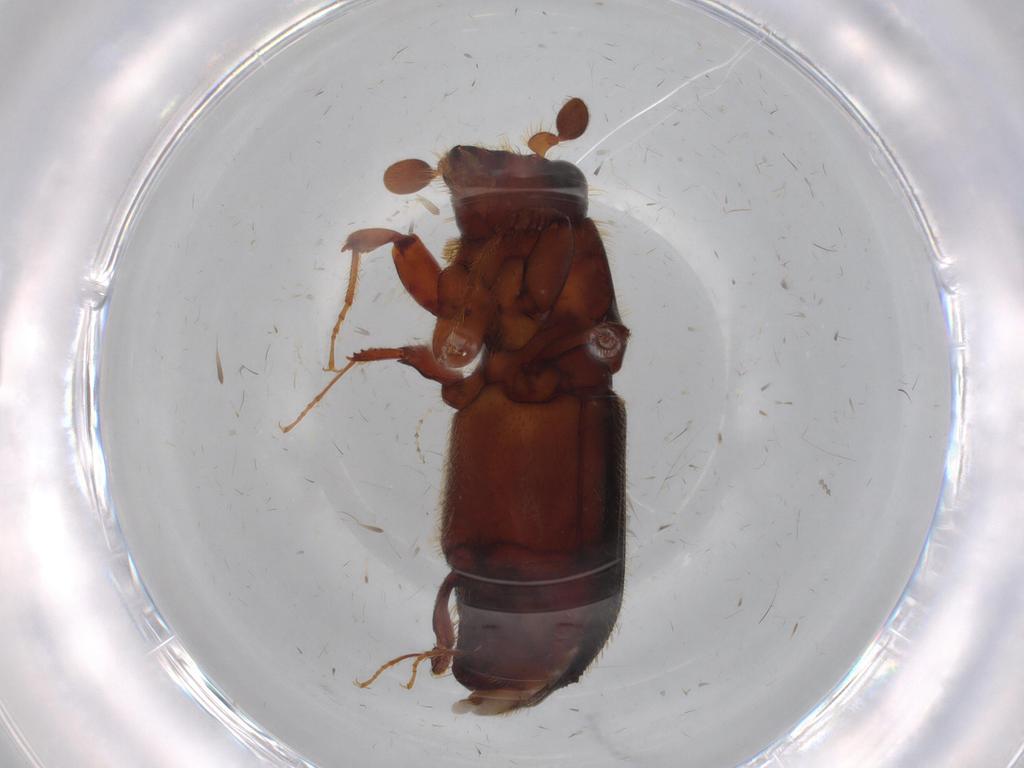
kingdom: Animalia
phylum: Arthropoda
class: Insecta
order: Coleoptera
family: Curculionidae
